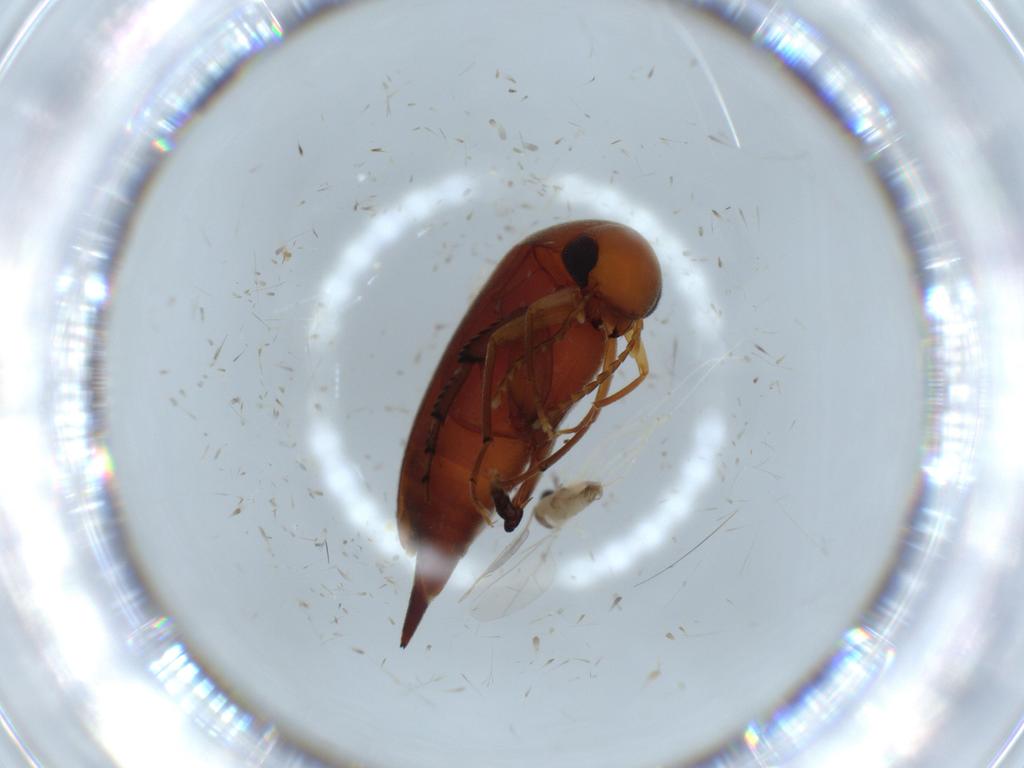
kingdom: Animalia
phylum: Arthropoda
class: Insecta
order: Diptera
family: Cecidomyiidae
